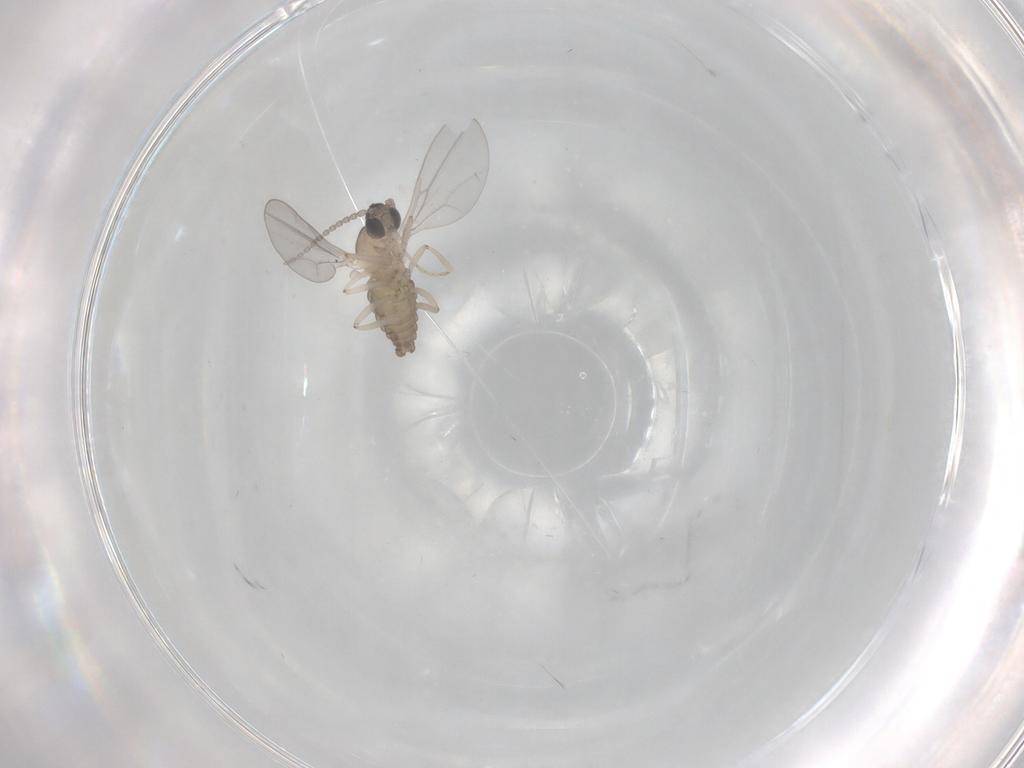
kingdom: Animalia
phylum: Arthropoda
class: Insecta
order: Diptera
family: Drosophilidae
